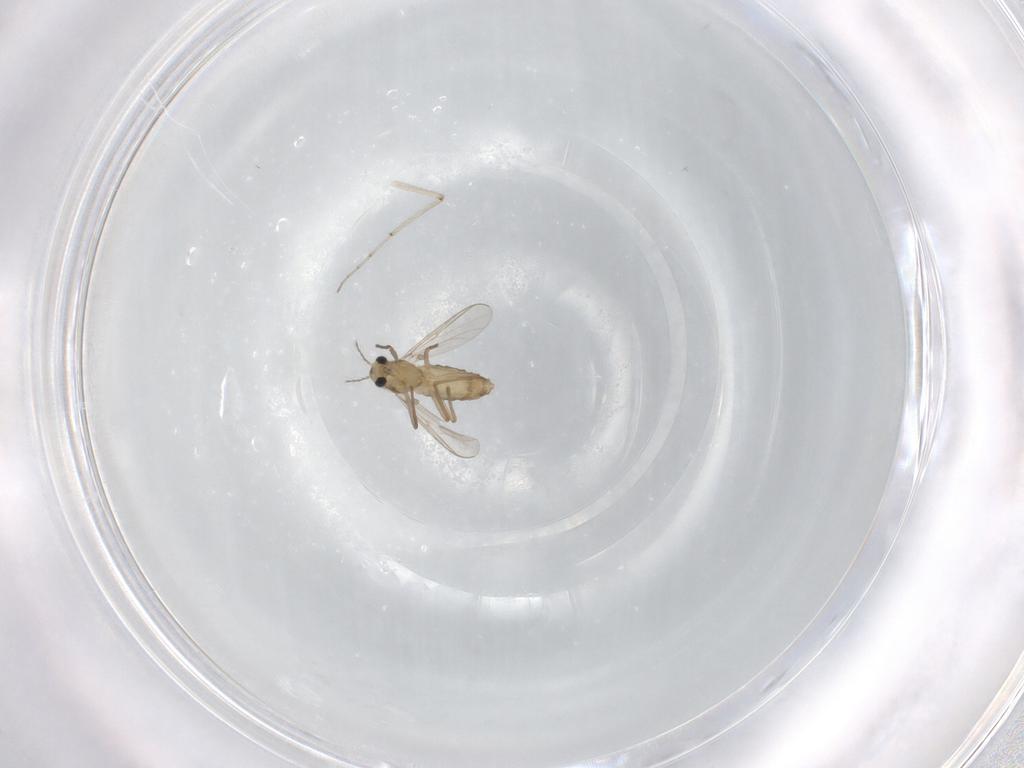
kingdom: Animalia
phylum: Arthropoda
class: Insecta
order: Diptera
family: Chironomidae
